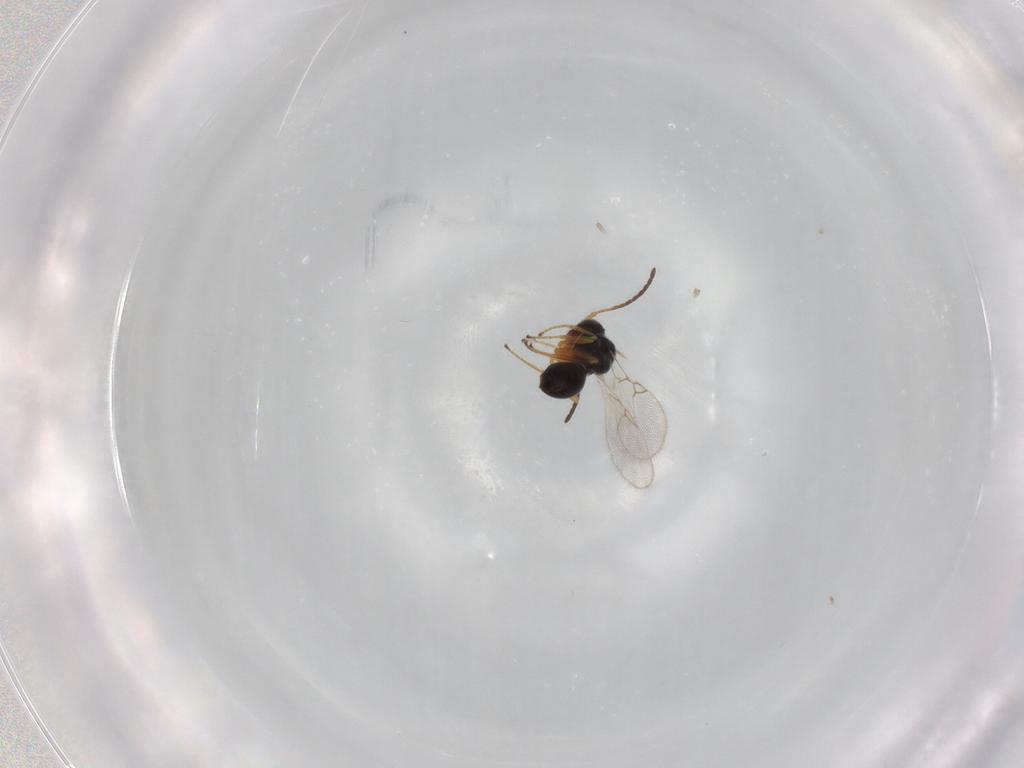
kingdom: Animalia
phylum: Arthropoda
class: Insecta
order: Hymenoptera
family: Figitidae
